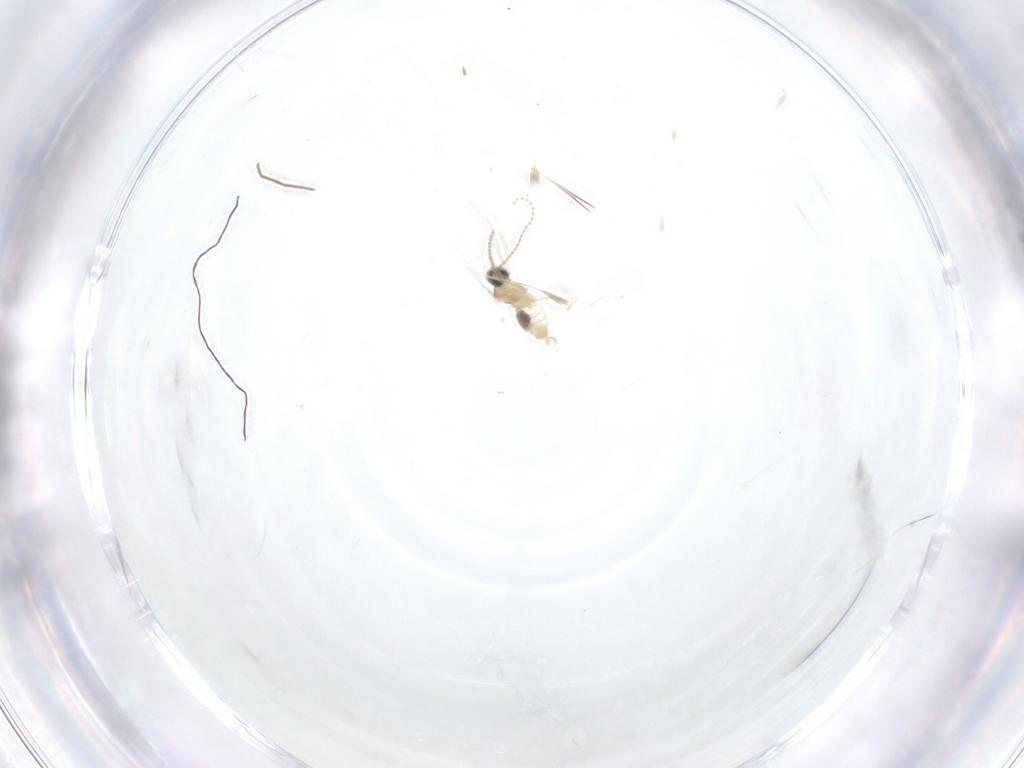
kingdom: Animalia
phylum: Arthropoda
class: Insecta
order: Diptera
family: Cecidomyiidae
